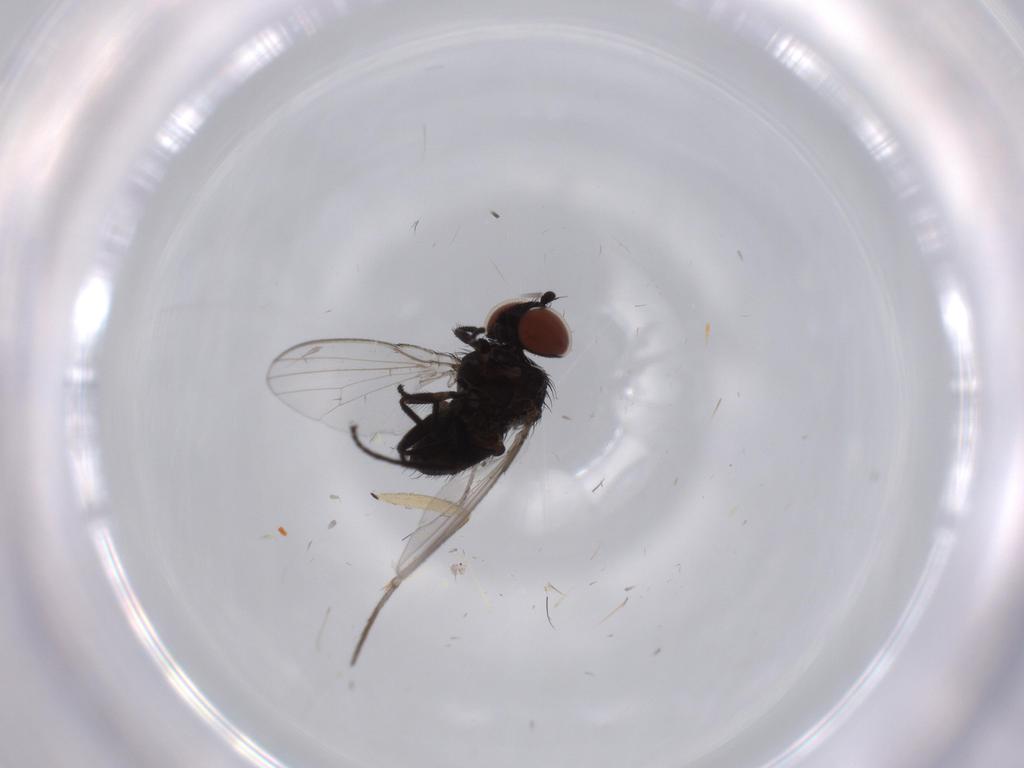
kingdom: Animalia
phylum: Arthropoda
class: Insecta
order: Diptera
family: Milichiidae
